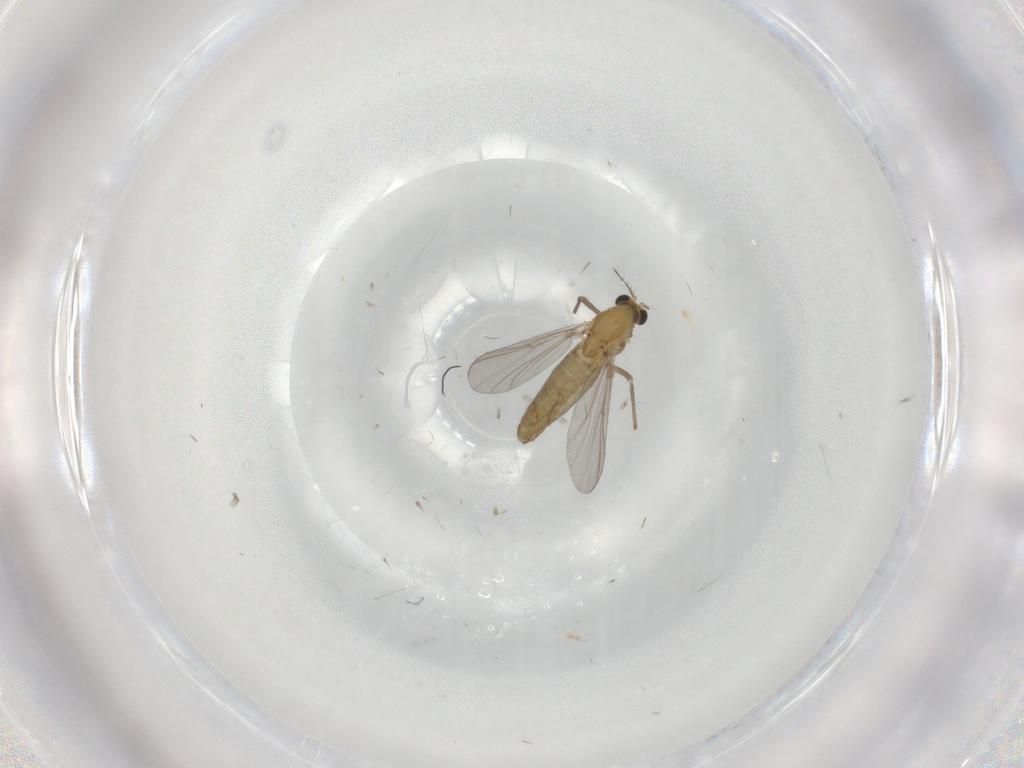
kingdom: Animalia
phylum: Arthropoda
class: Insecta
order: Diptera
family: Chironomidae
